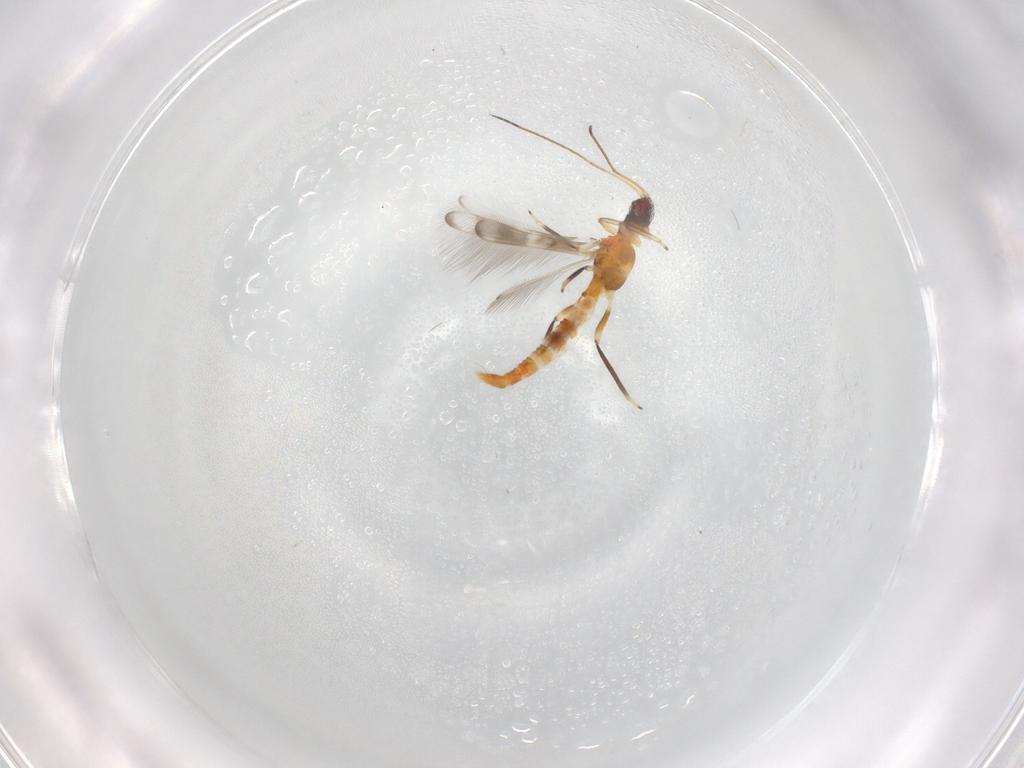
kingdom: Animalia
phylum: Arthropoda
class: Insecta
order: Thysanoptera
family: Aeolothripidae
